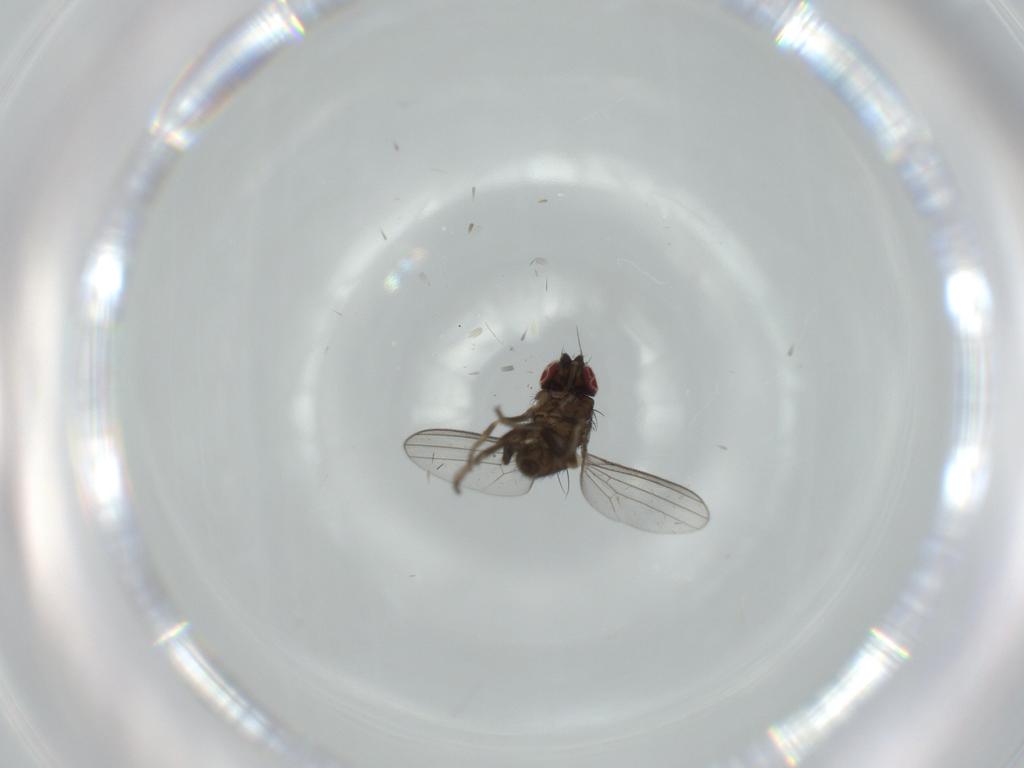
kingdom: Animalia
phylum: Arthropoda
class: Insecta
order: Diptera
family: Milichiidae
